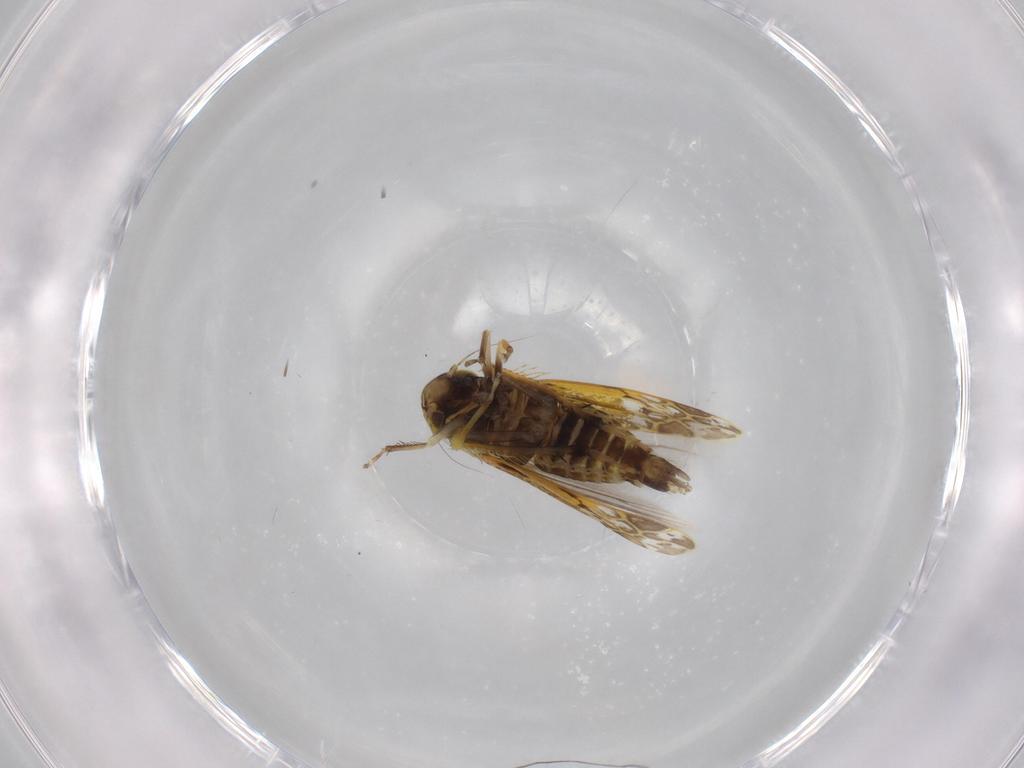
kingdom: Animalia
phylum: Arthropoda
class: Insecta
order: Hemiptera
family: Cicadellidae
